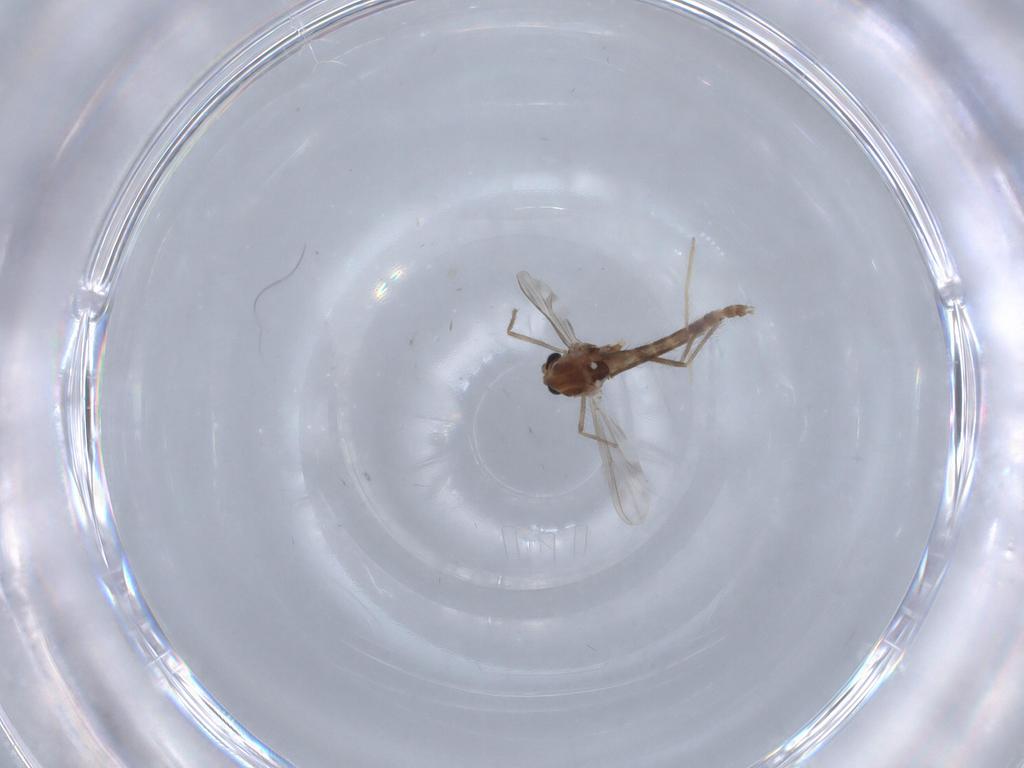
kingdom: Animalia
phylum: Arthropoda
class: Insecta
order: Diptera
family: Chironomidae
